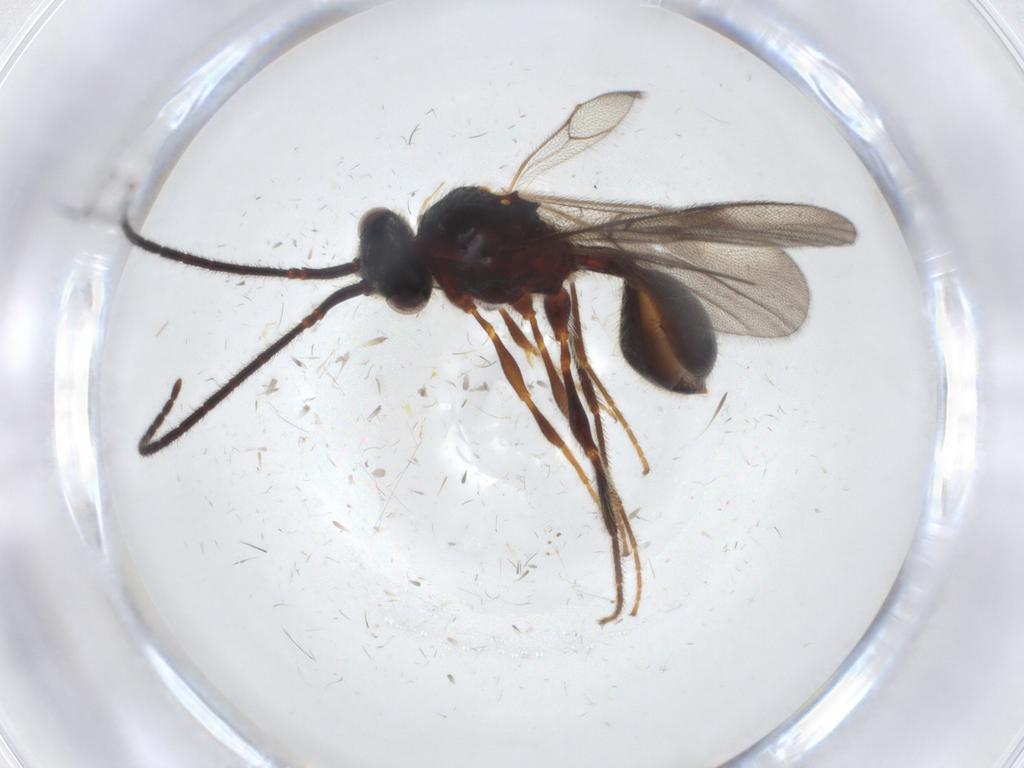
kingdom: Animalia
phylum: Arthropoda
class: Insecta
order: Hymenoptera
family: Diapriidae
